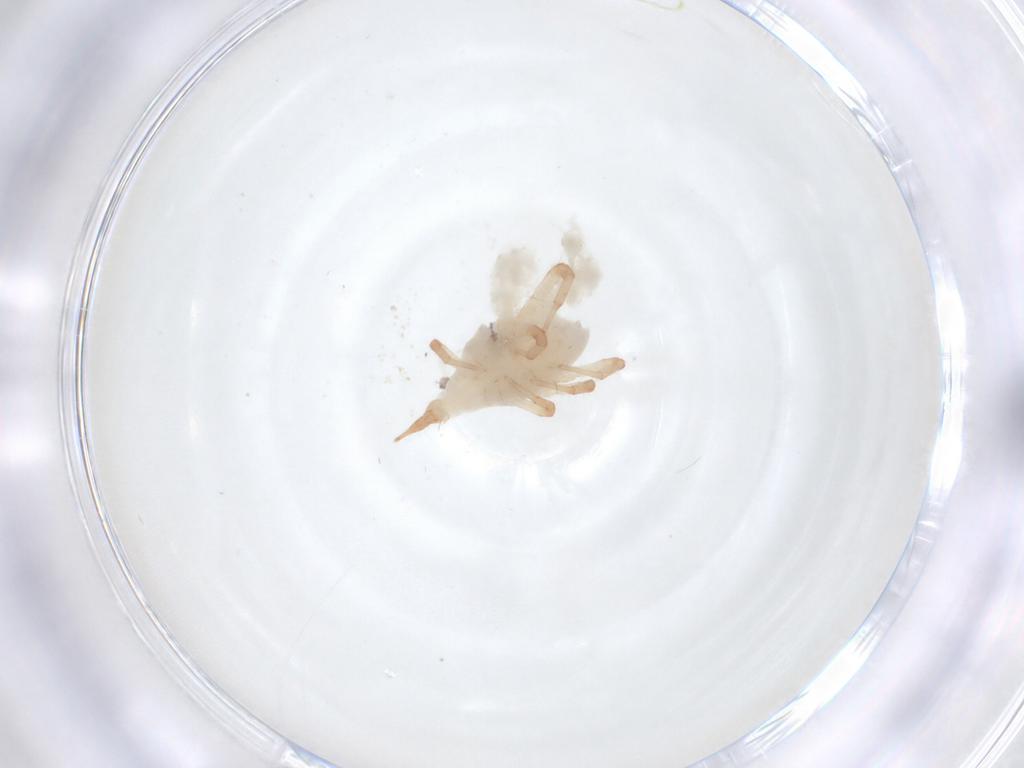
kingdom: Animalia
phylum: Arthropoda
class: Arachnida
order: Trombidiformes
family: Bdellidae
